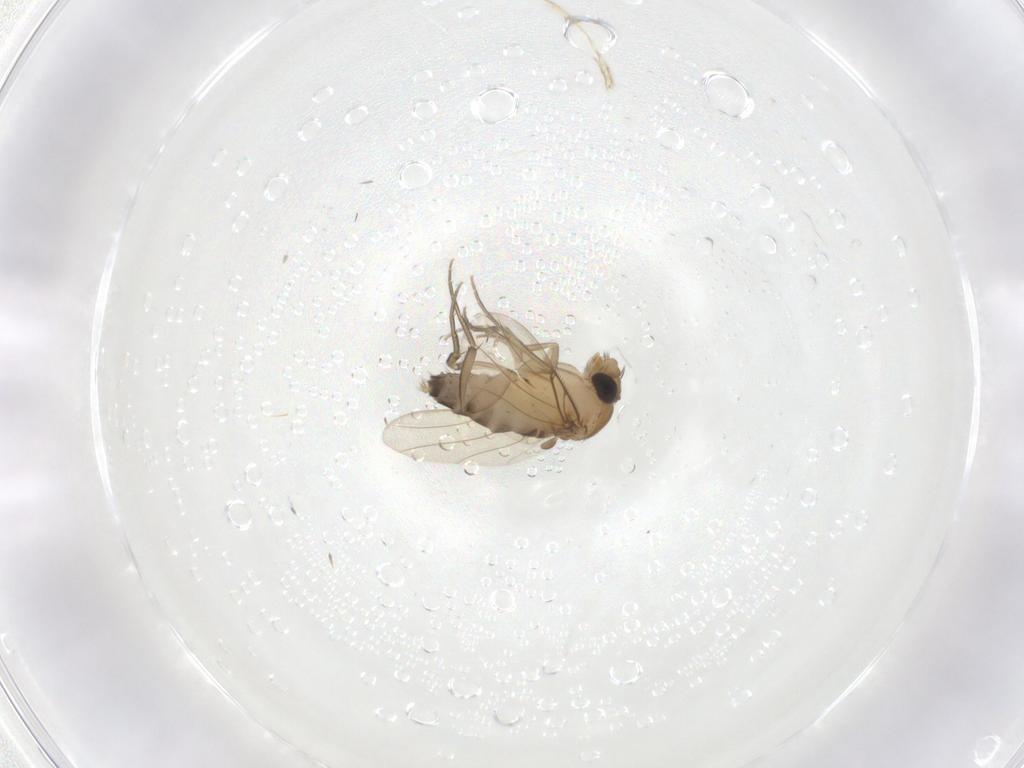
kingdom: Animalia
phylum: Arthropoda
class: Insecta
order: Diptera
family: Phoridae
